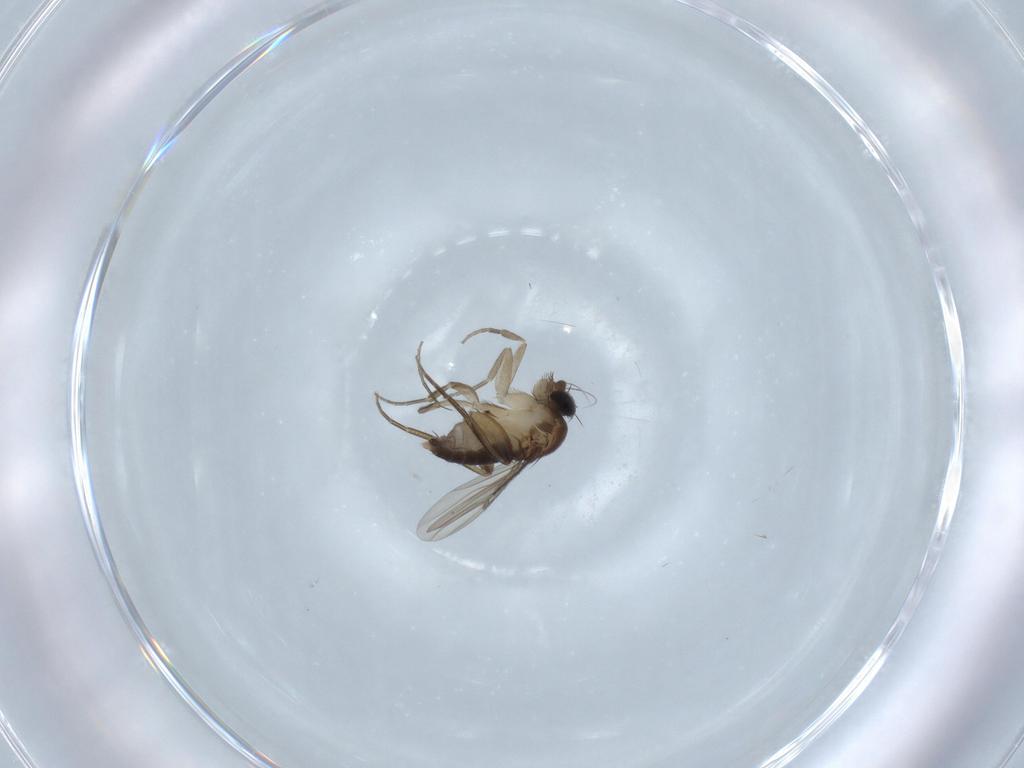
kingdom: Animalia
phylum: Arthropoda
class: Insecta
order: Diptera
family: Phoridae
